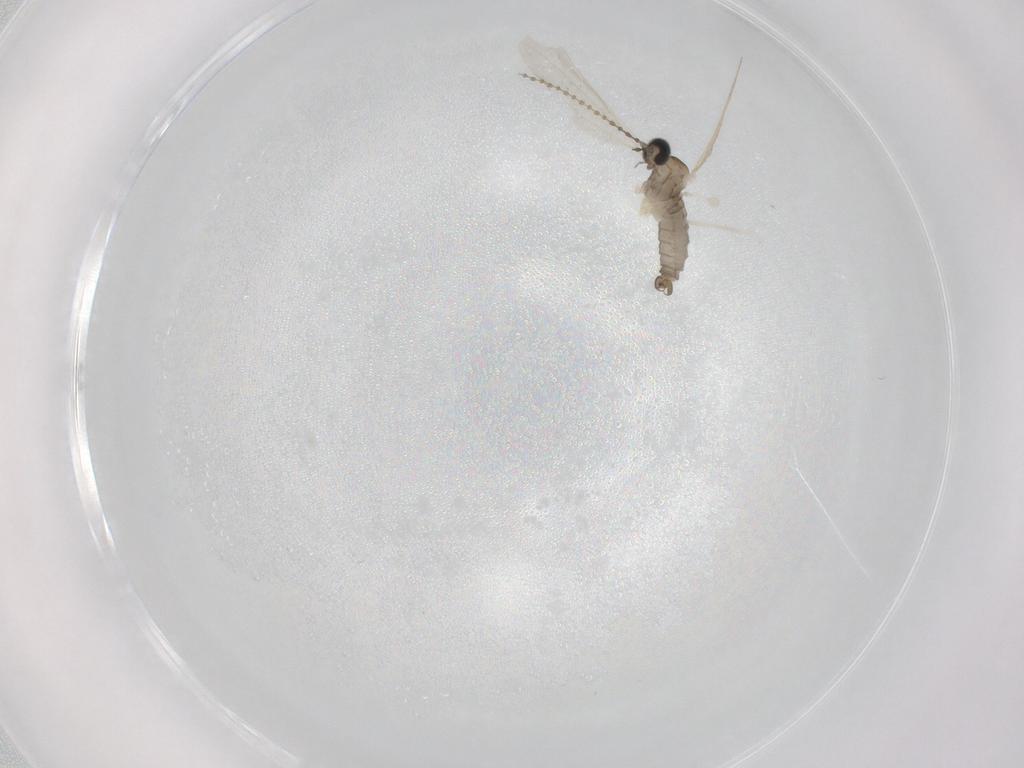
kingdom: Animalia
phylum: Arthropoda
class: Insecta
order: Diptera
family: Cecidomyiidae
